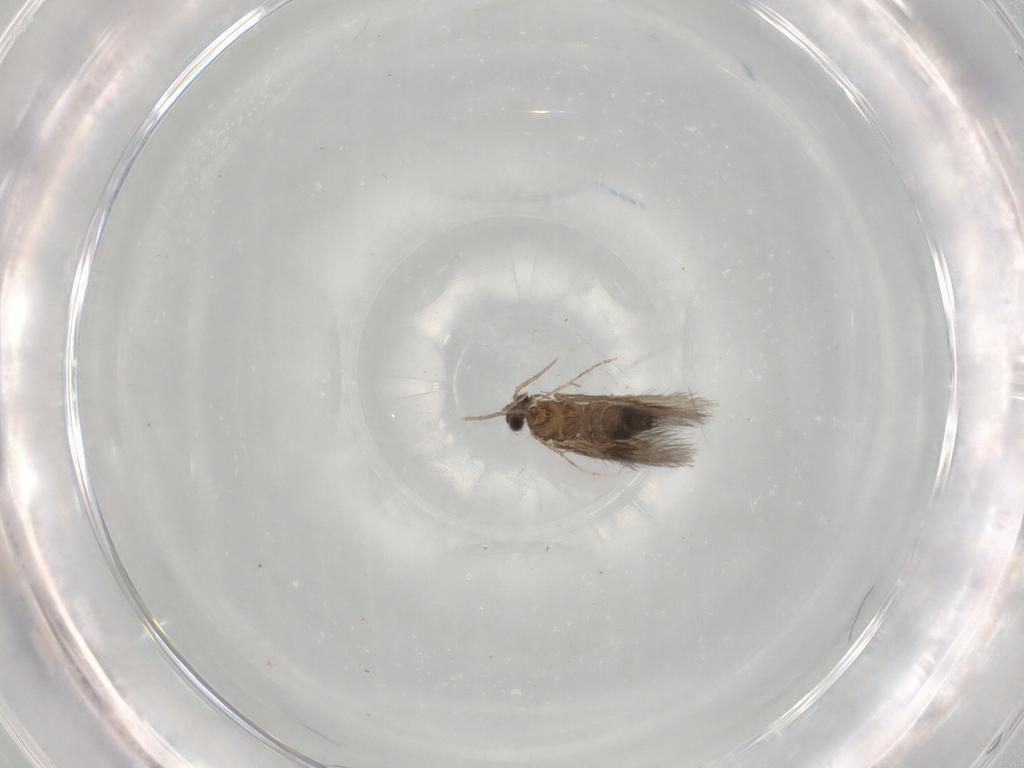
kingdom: Animalia
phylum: Arthropoda
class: Insecta
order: Trichoptera
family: Hydroptilidae
